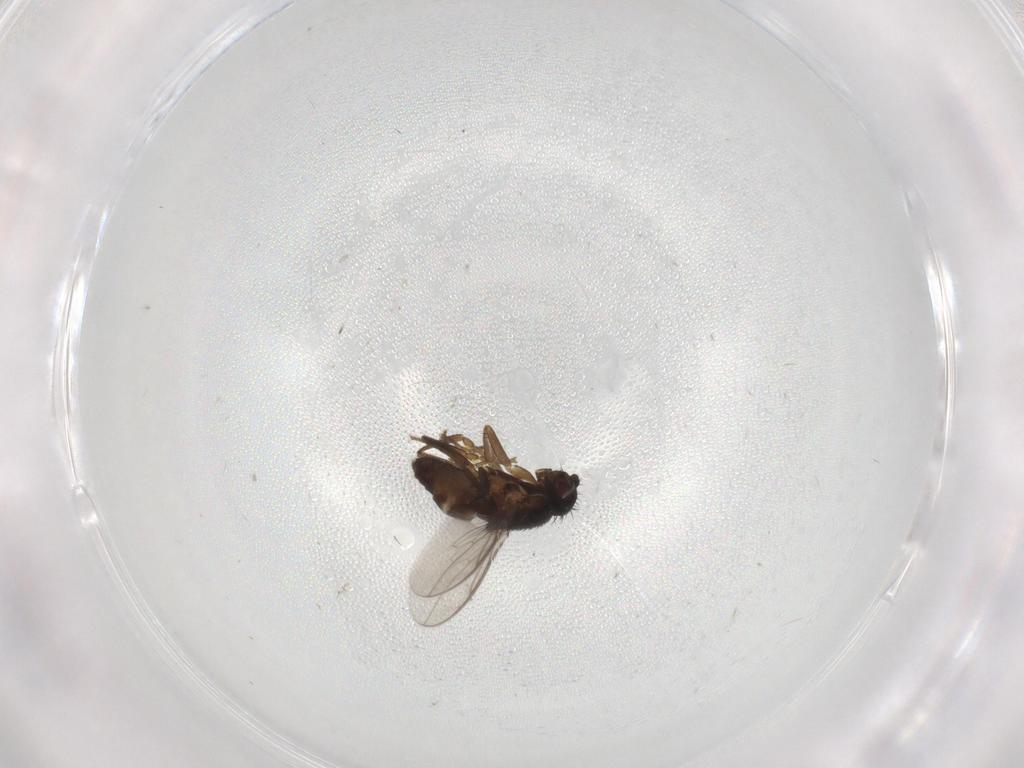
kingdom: Animalia
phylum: Arthropoda
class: Insecta
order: Diptera
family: Sphaeroceridae
